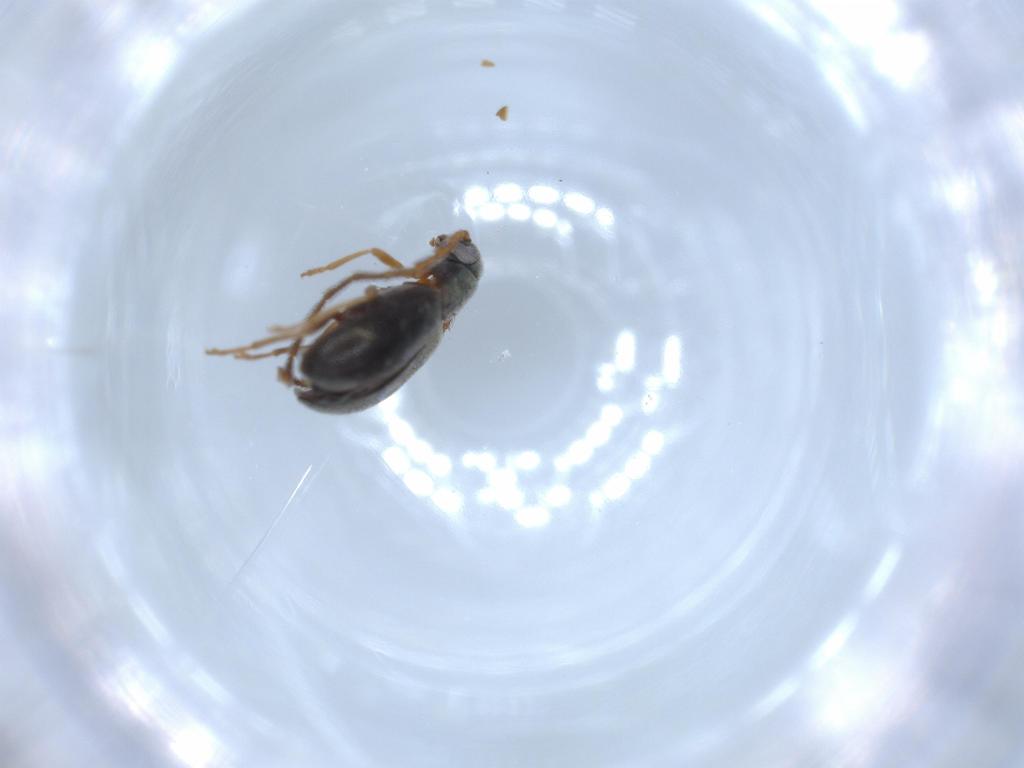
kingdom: Animalia
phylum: Arthropoda
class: Insecta
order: Coleoptera
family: Aderidae
